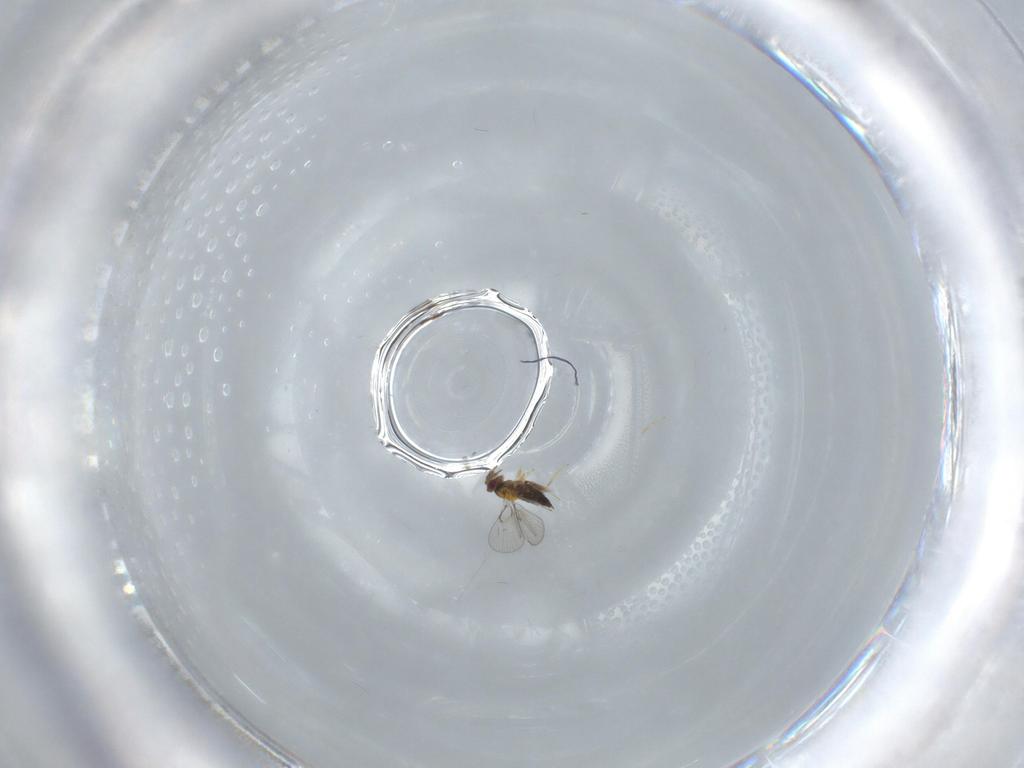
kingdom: Animalia
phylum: Arthropoda
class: Insecta
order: Hymenoptera
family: Trichogrammatidae
